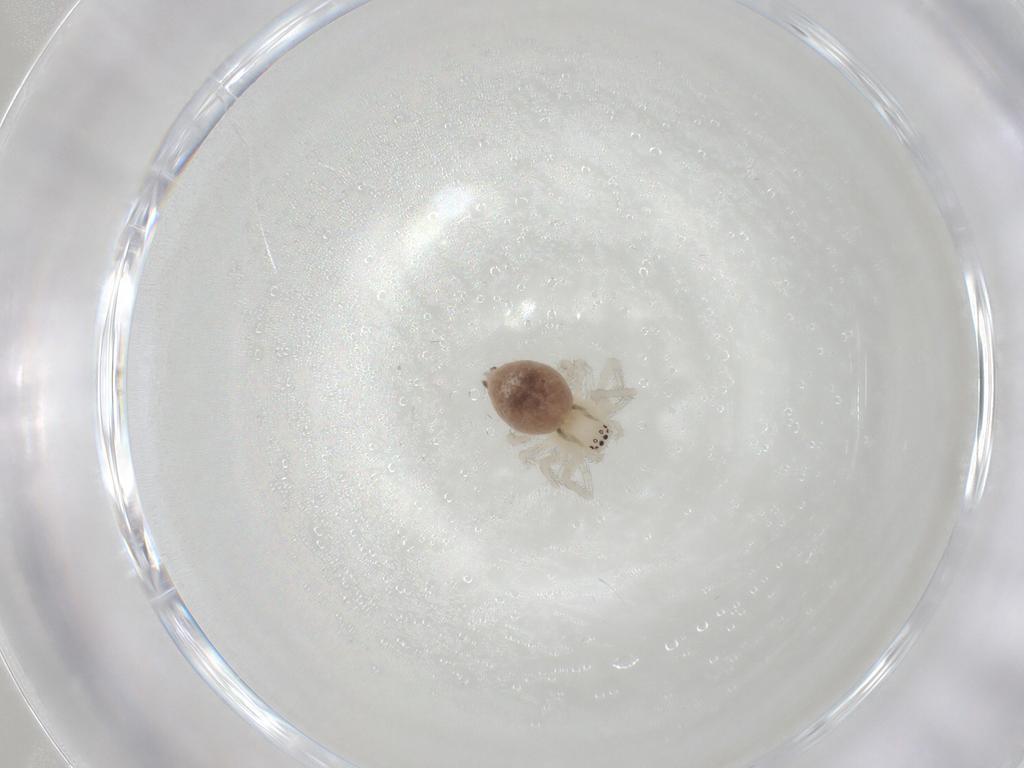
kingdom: Animalia
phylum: Arthropoda
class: Arachnida
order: Araneae
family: Dictynidae
